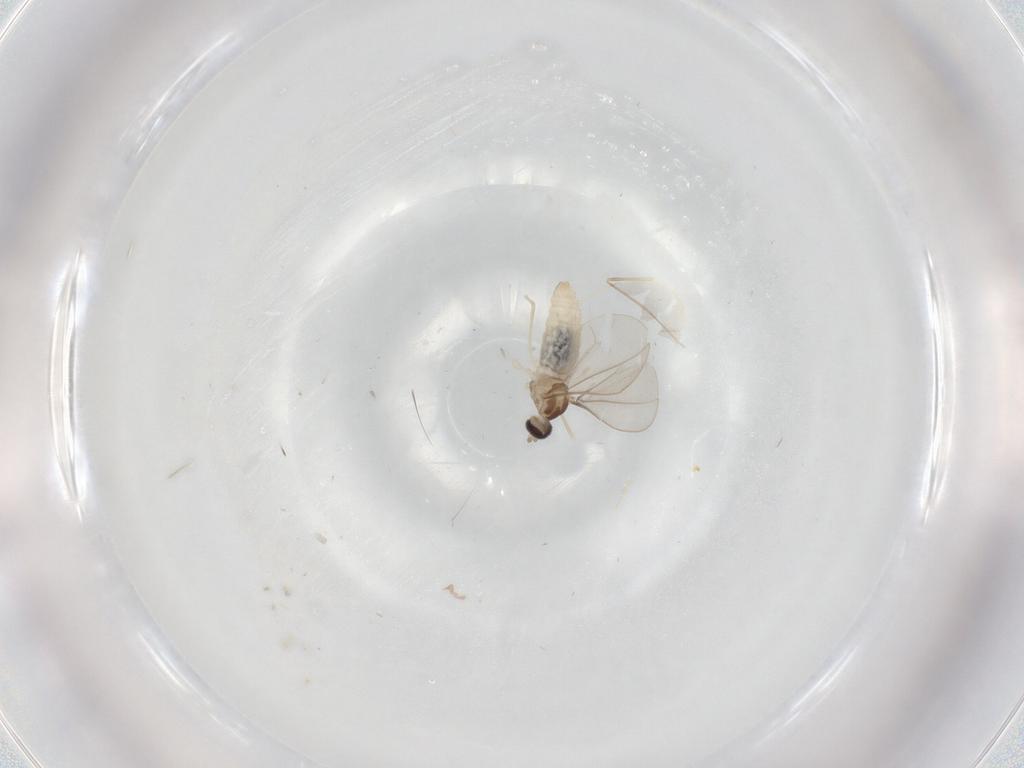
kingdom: Animalia
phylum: Arthropoda
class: Insecta
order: Diptera
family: Cecidomyiidae
